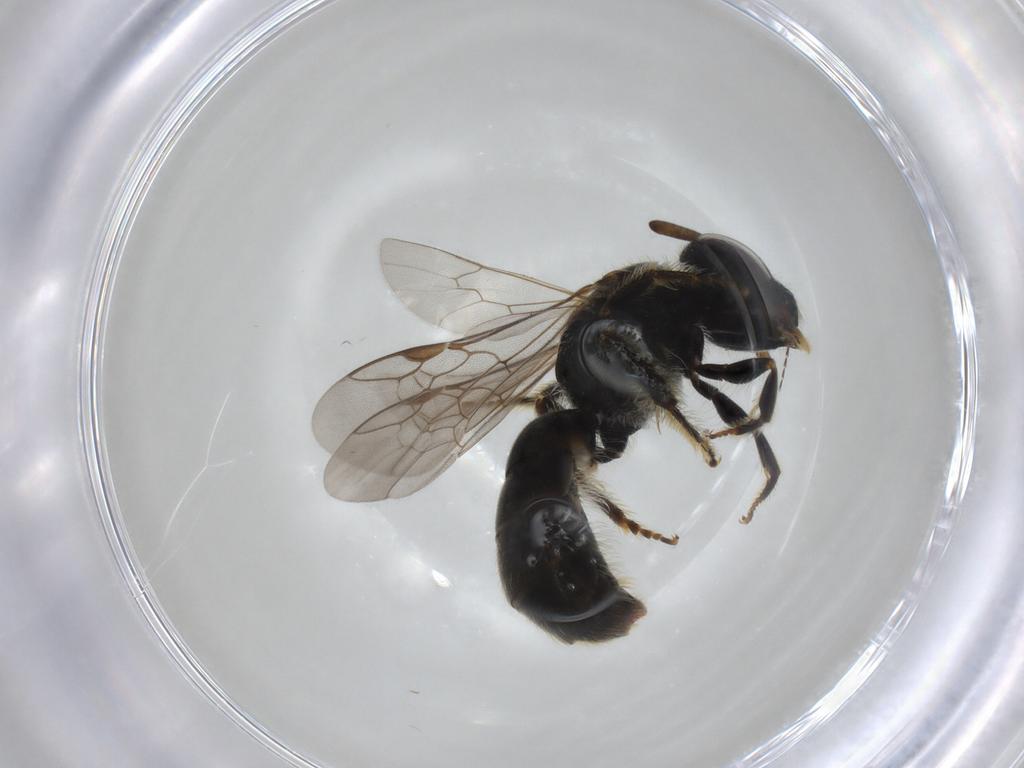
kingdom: Animalia
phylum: Arthropoda
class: Insecta
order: Hymenoptera
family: Halictidae
